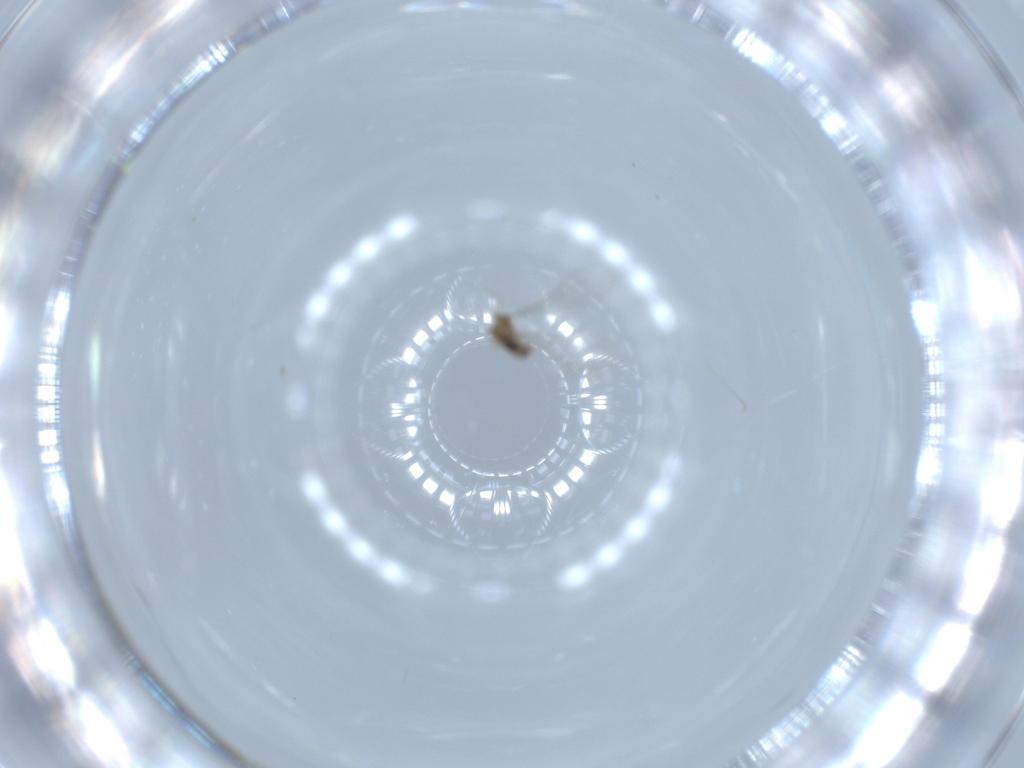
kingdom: Animalia
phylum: Arthropoda
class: Insecta
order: Diptera
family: Cecidomyiidae
